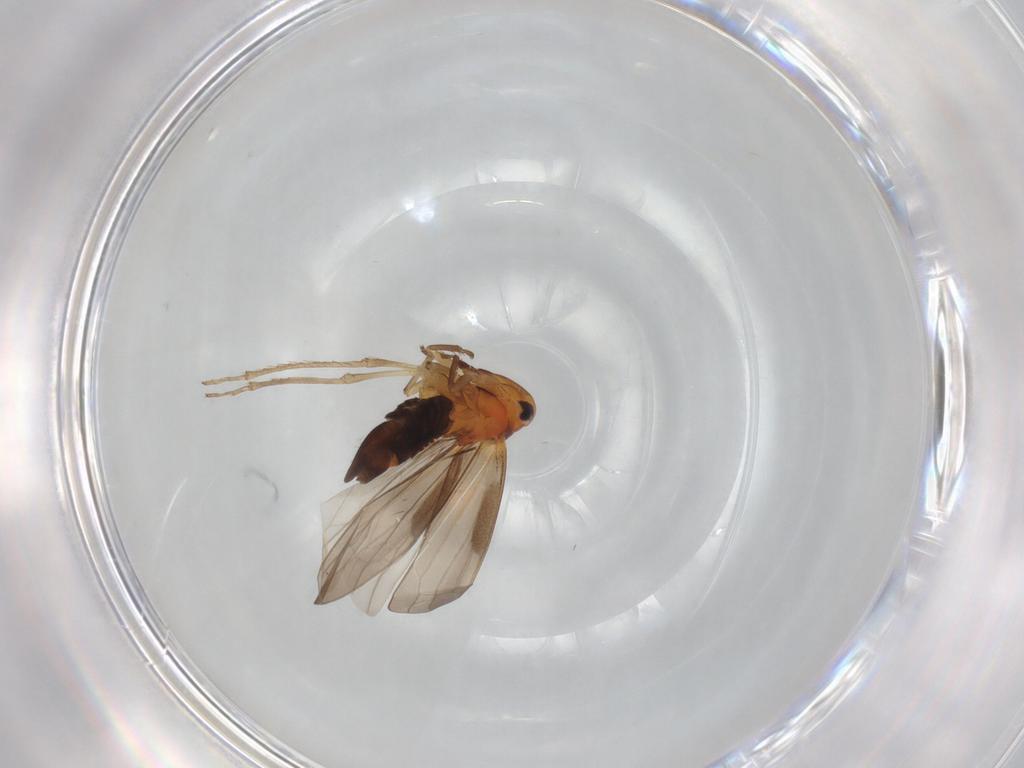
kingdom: Animalia
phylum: Arthropoda
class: Insecta
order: Hemiptera
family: Cicadellidae
